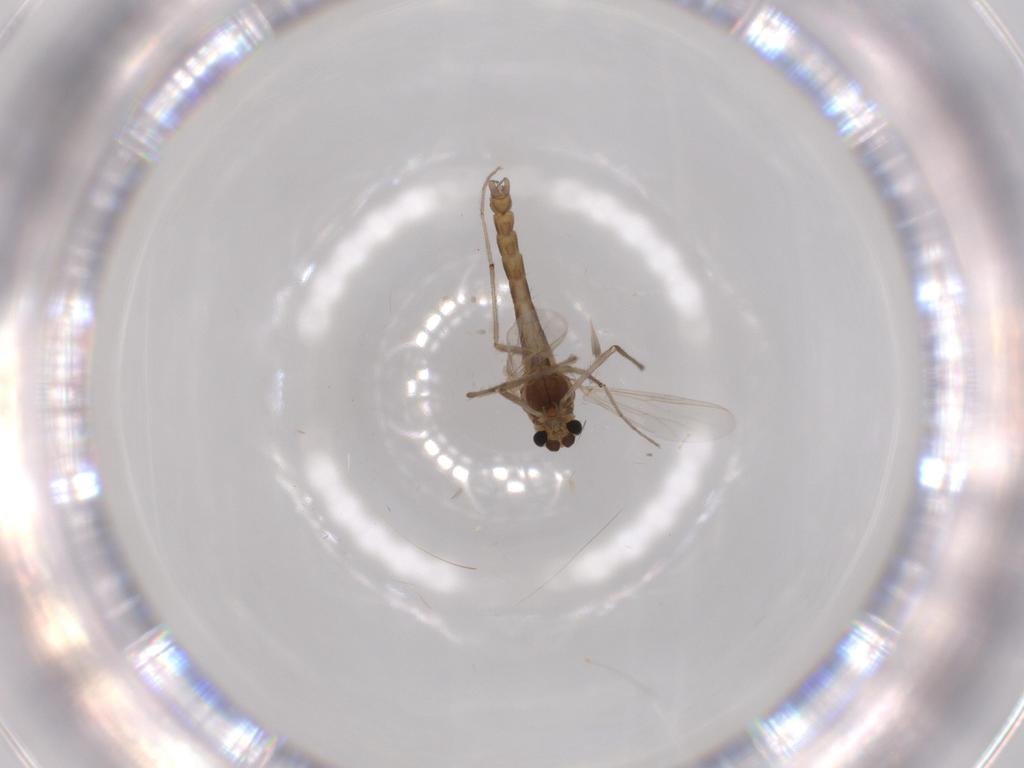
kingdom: Animalia
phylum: Arthropoda
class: Insecta
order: Diptera
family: Chironomidae
